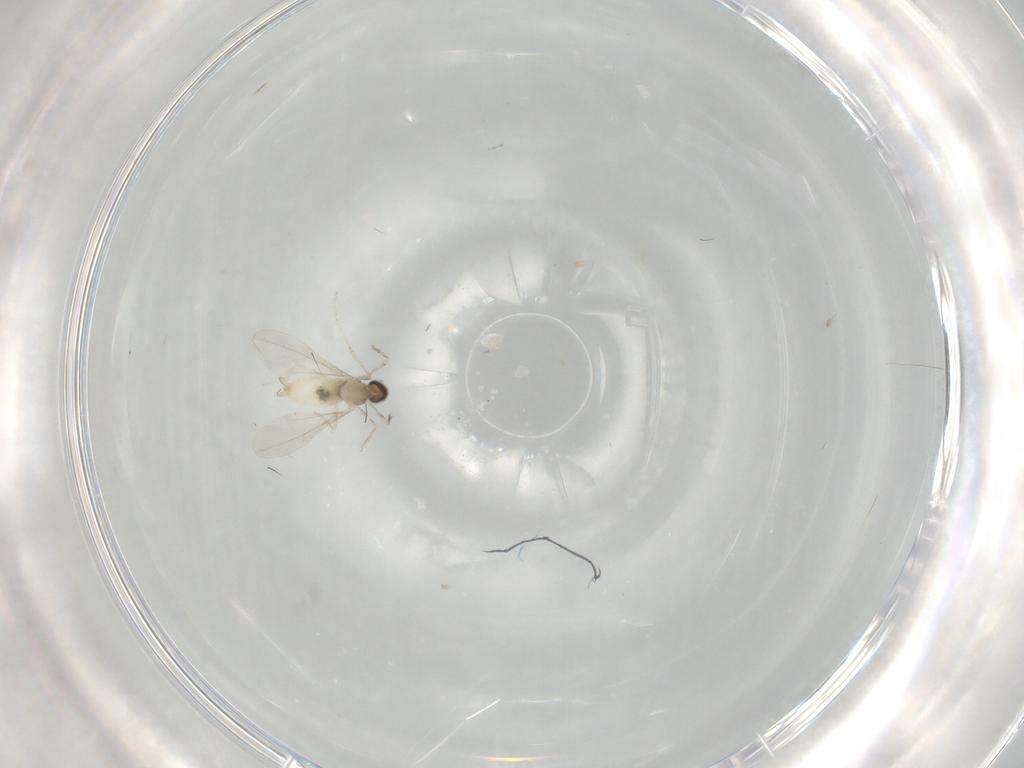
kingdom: Animalia
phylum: Arthropoda
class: Insecta
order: Diptera
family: Cecidomyiidae
